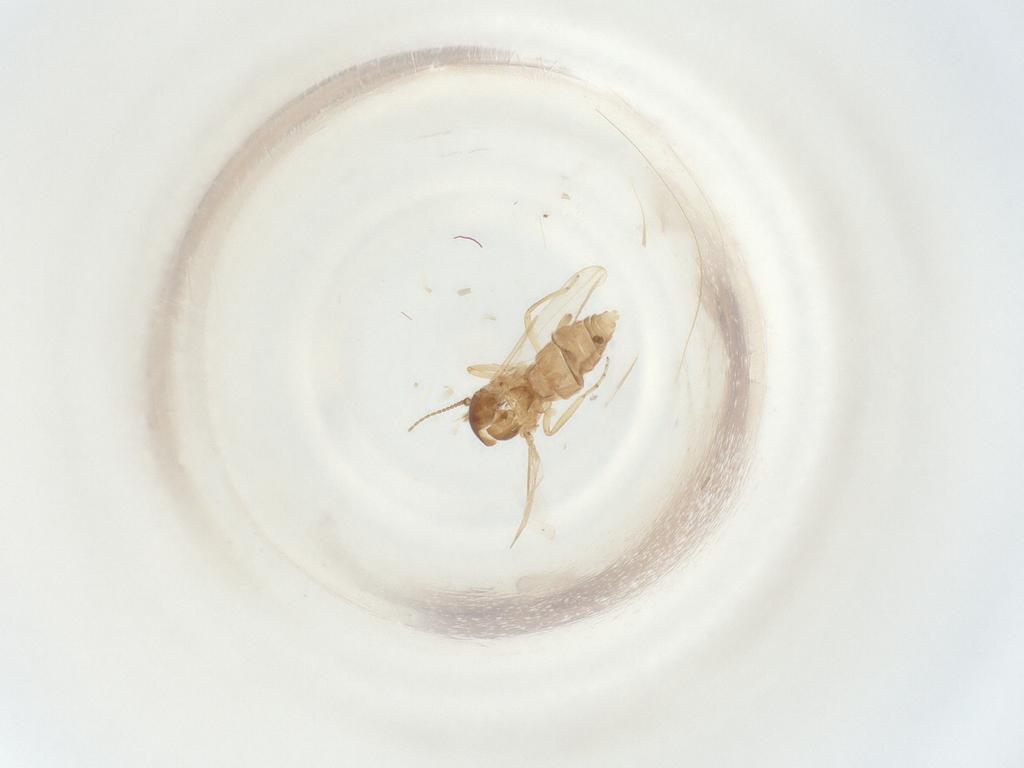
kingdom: Animalia
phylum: Arthropoda
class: Insecta
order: Diptera
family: Ceratopogonidae
